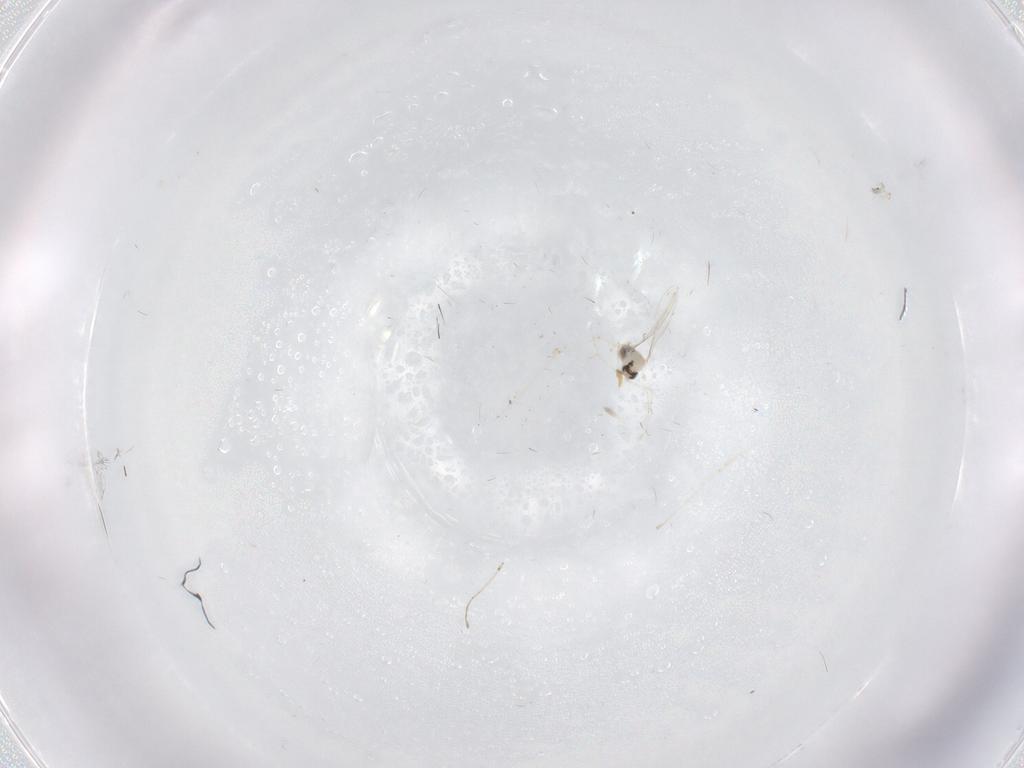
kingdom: Animalia
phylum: Arthropoda
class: Insecta
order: Diptera
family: Cecidomyiidae
